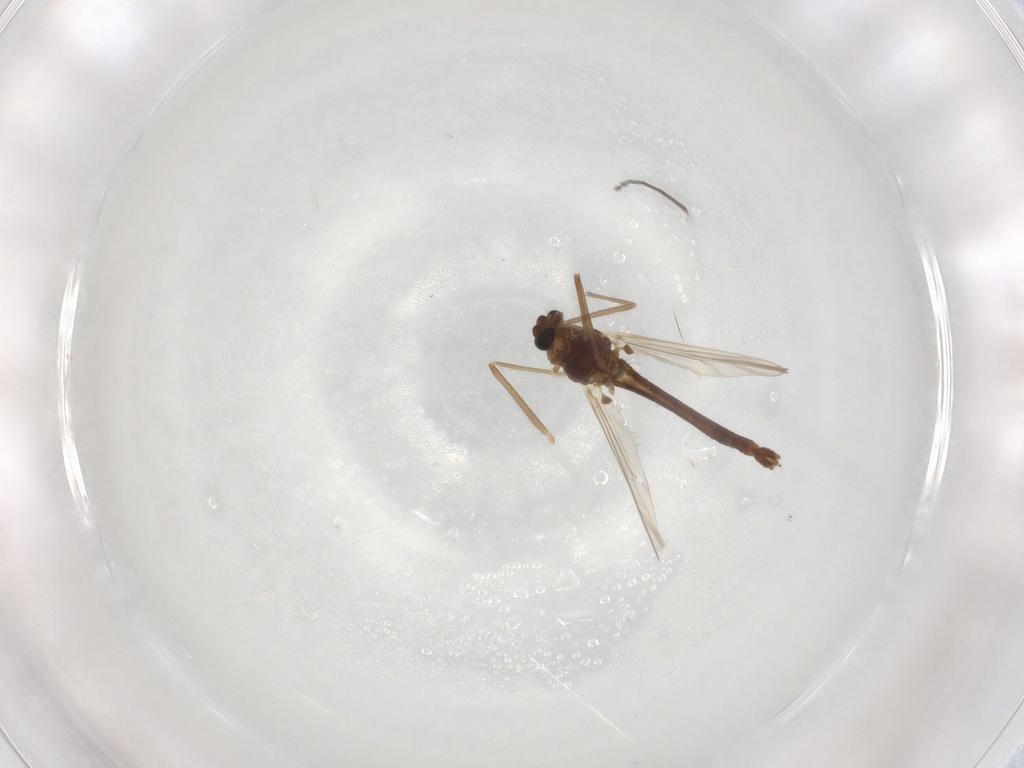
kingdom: Animalia
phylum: Arthropoda
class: Insecta
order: Diptera
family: Chironomidae
